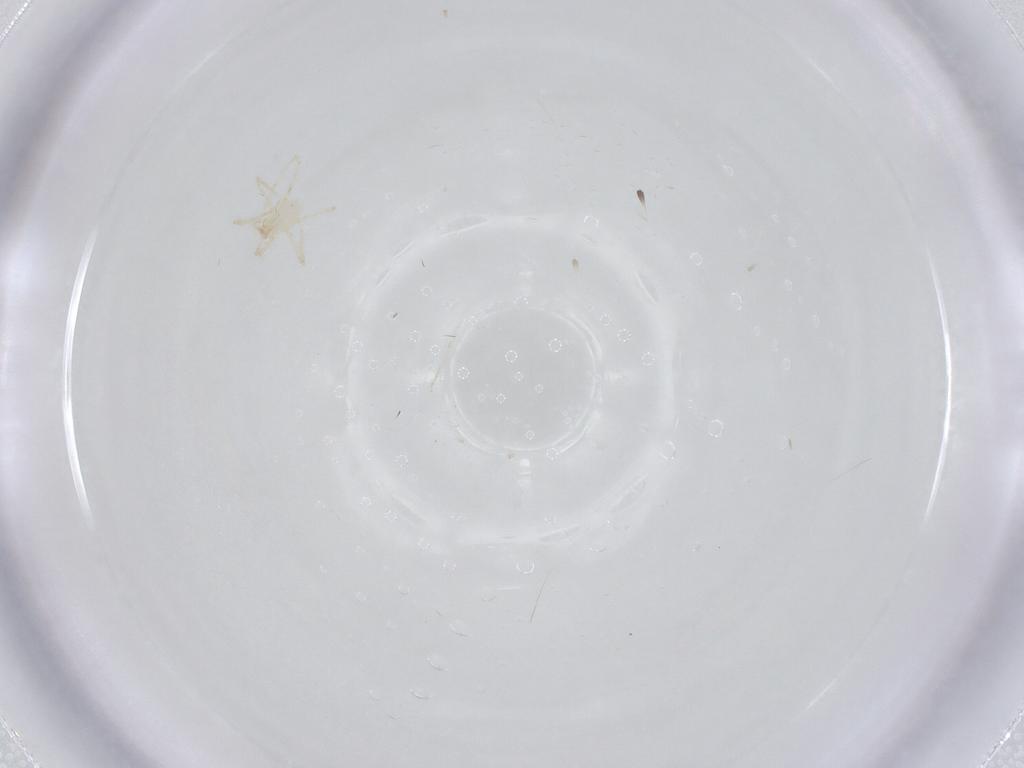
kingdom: Animalia
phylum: Arthropoda
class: Arachnida
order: Trombidiformes
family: Erythraeidae
